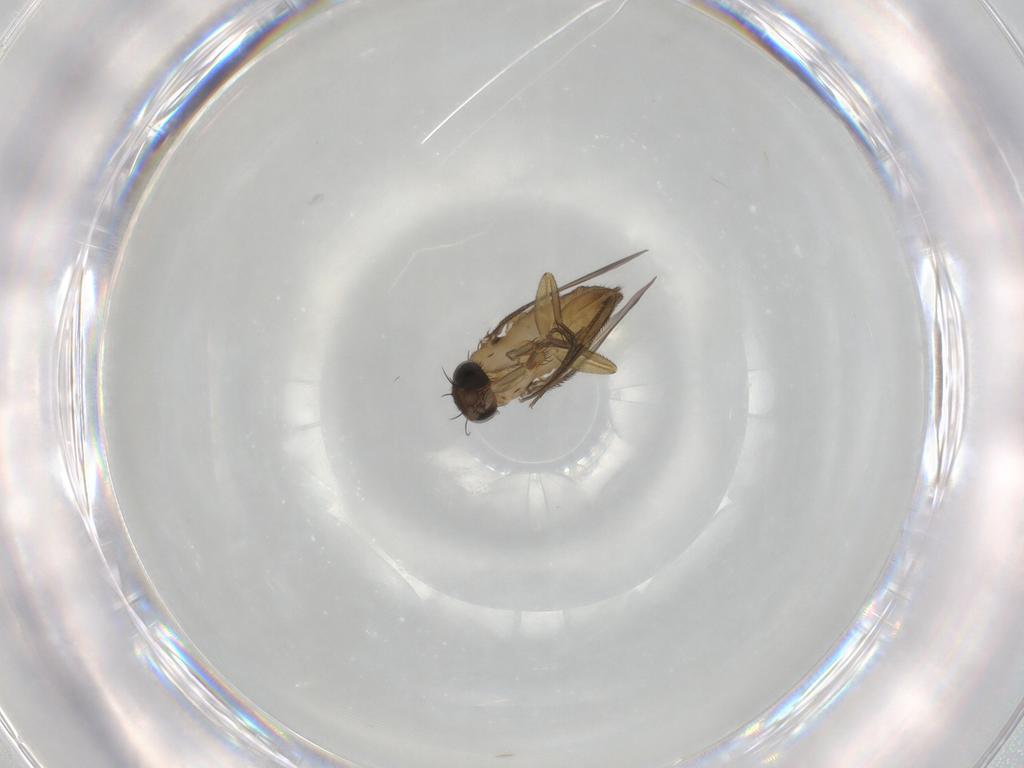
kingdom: Animalia
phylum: Arthropoda
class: Insecta
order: Diptera
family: Phoridae
